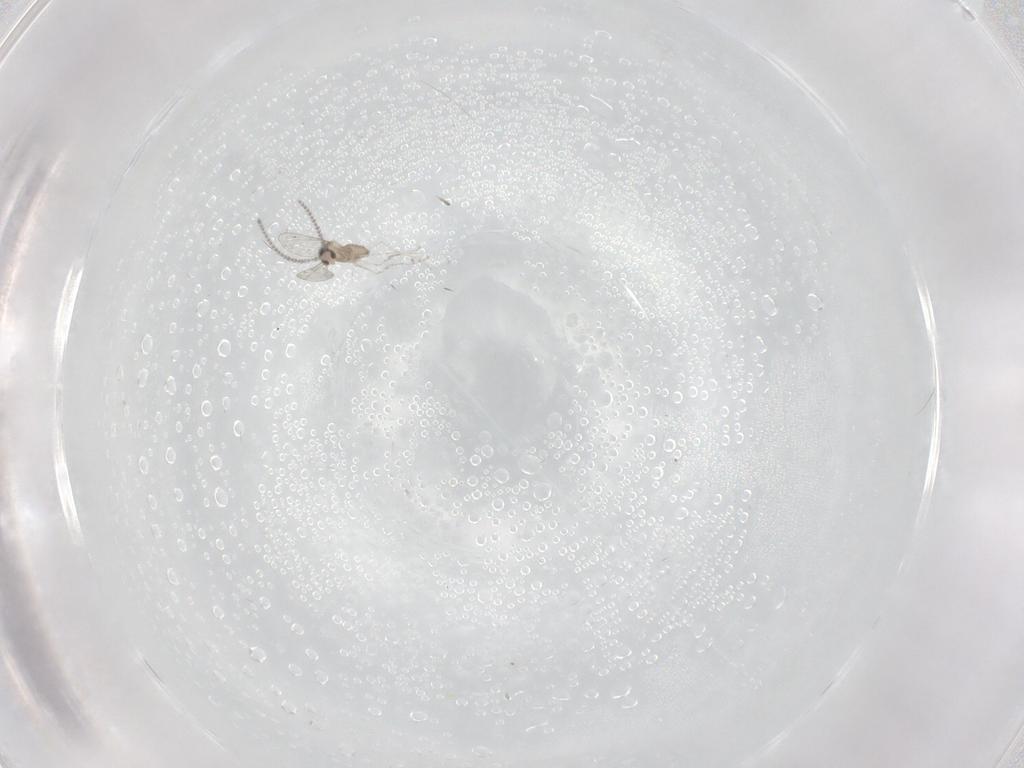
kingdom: Animalia
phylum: Arthropoda
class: Insecta
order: Diptera
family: Cecidomyiidae
